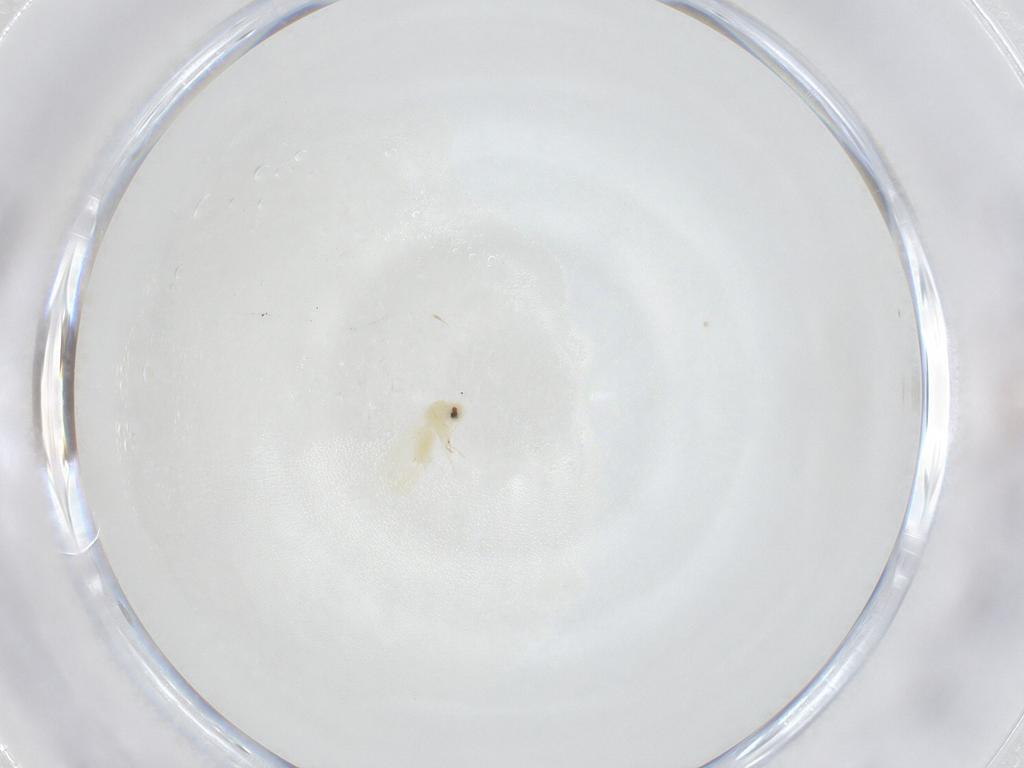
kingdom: Animalia
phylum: Arthropoda
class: Insecta
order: Hemiptera
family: Aleyrodidae
